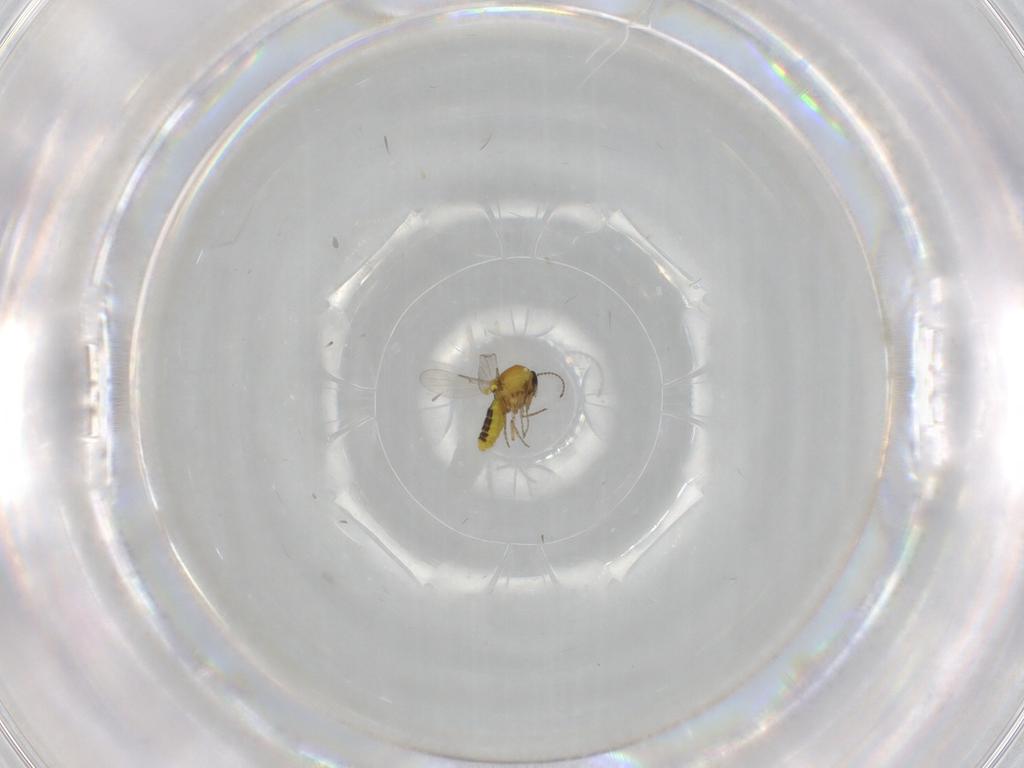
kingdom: Animalia
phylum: Arthropoda
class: Insecta
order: Diptera
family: Ceratopogonidae
